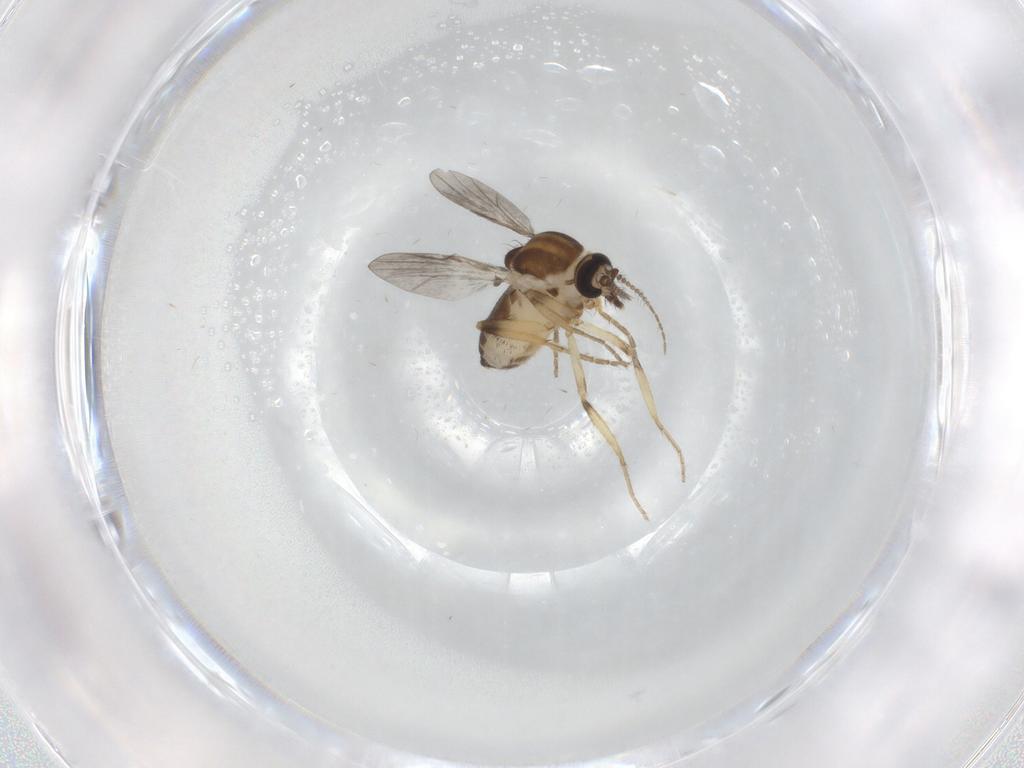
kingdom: Animalia
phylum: Arthropoda
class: Insecta
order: Diptera
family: Ceratopogonidae
